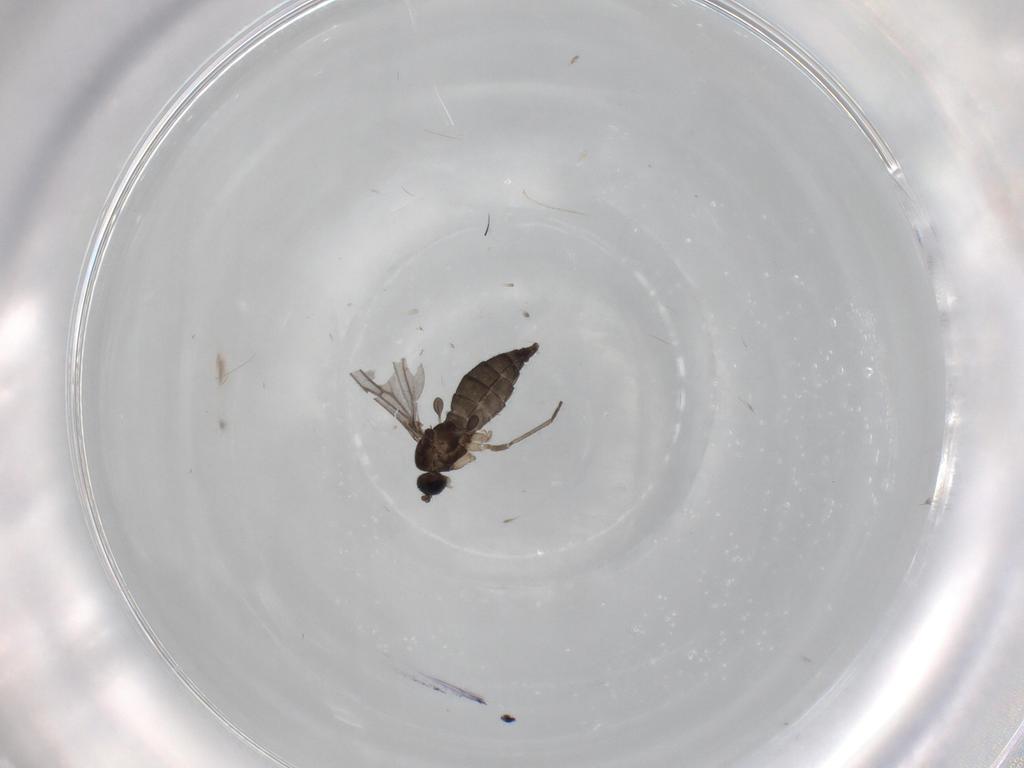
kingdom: Animalia
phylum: Arthropoda
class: Insecta
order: Diptera
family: Sciaridae
